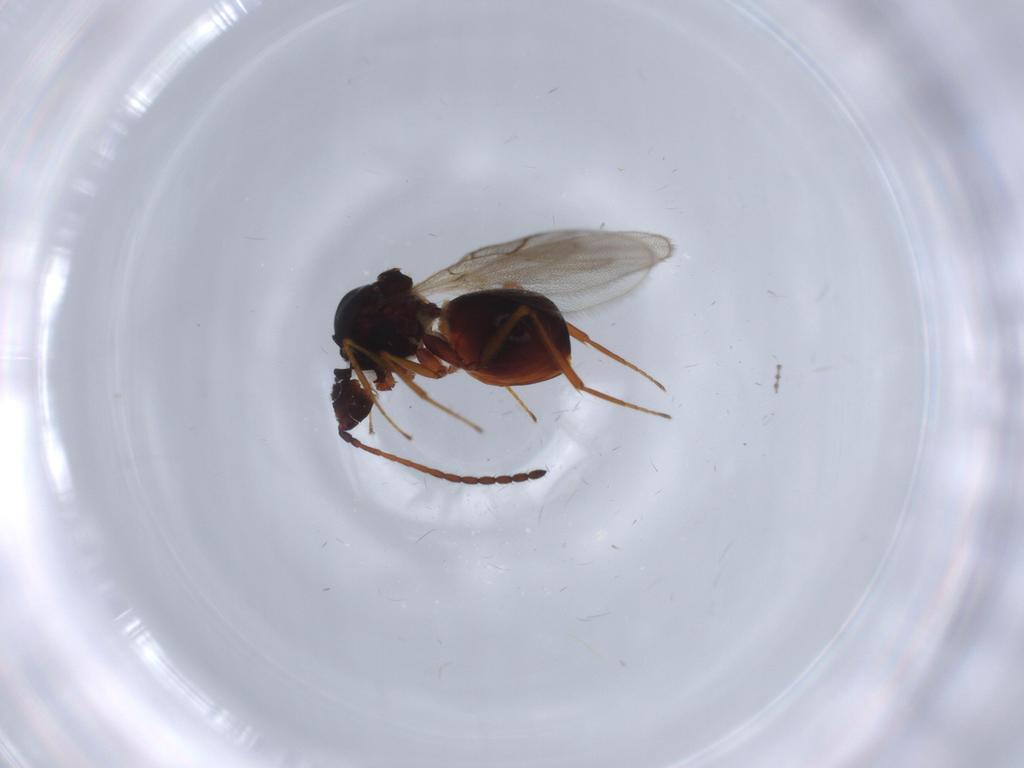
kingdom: Animalia
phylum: Arthropoda
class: Insecta
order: Hymenoptera
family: Figitidae
